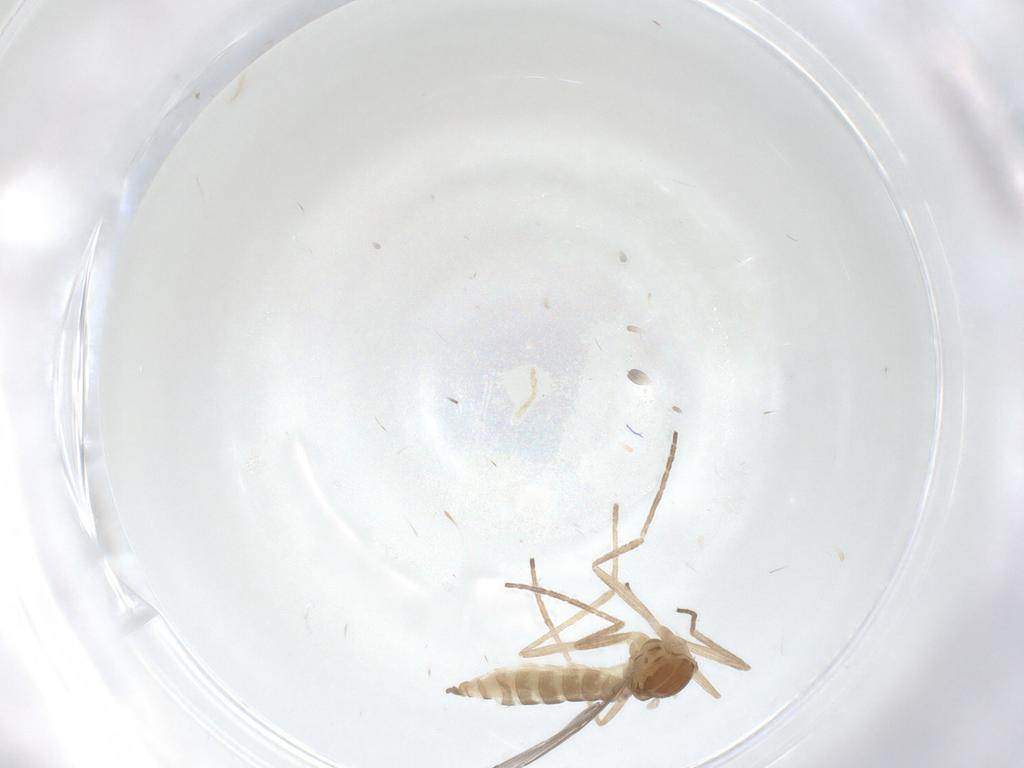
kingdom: Animalia
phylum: Arthropoda
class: Insecta
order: Diptera
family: Cecidomyiidae
